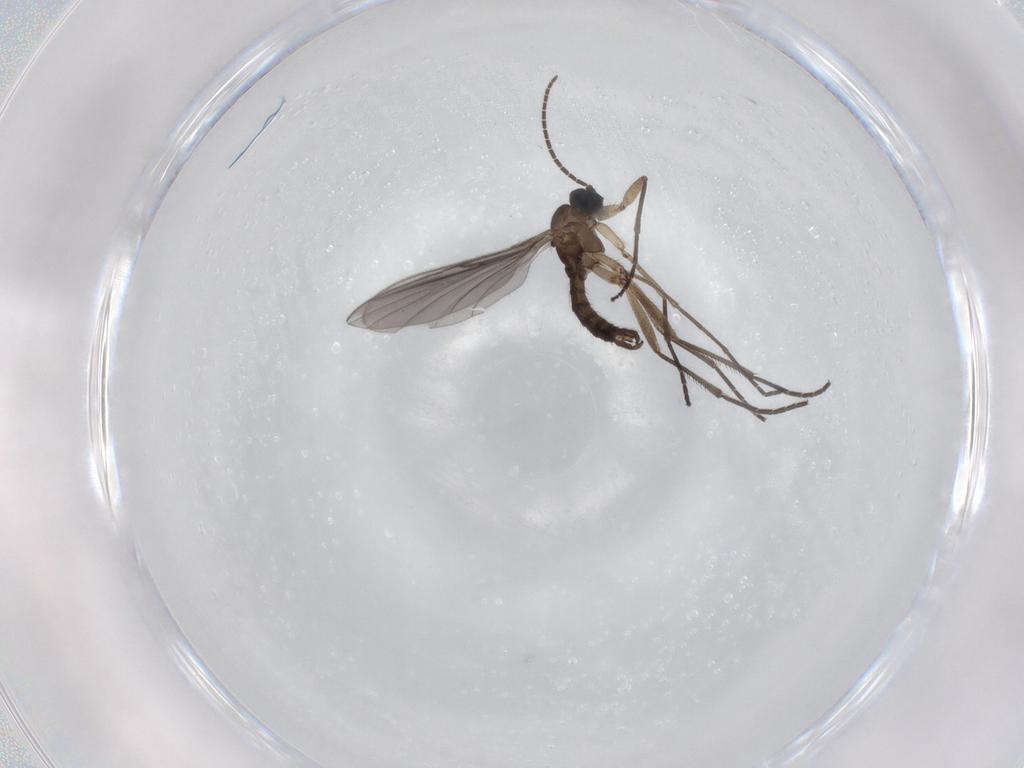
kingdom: Animalia
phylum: Arthropoda
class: Insecta
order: Diptera
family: Sciaridae
